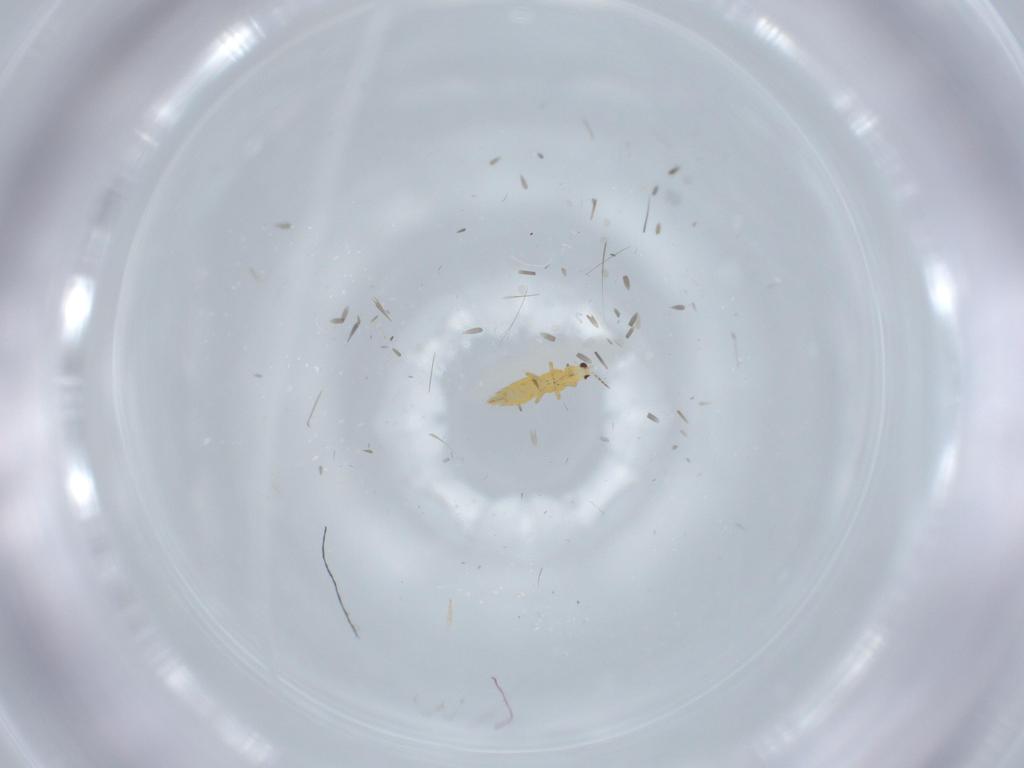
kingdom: Animalia
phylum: Arthropoda
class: Insecta
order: Thysanoptera
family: Thripidae
